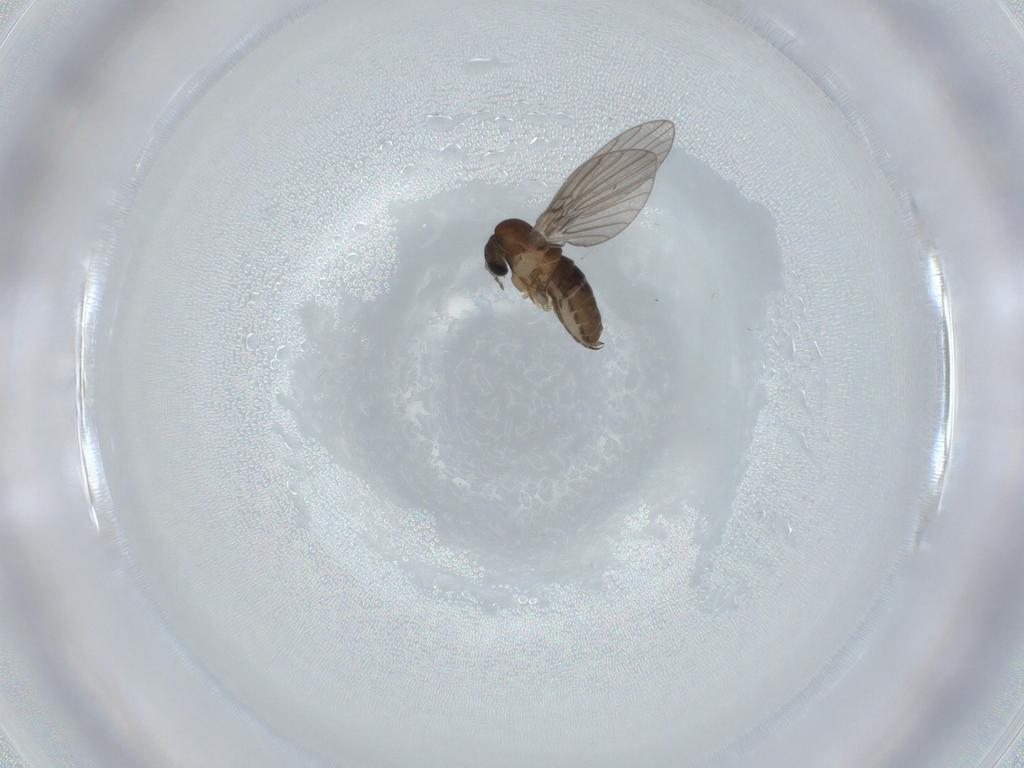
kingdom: Animalia
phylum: Arthropoda
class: Insecta
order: Diptera
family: Psychodidae
